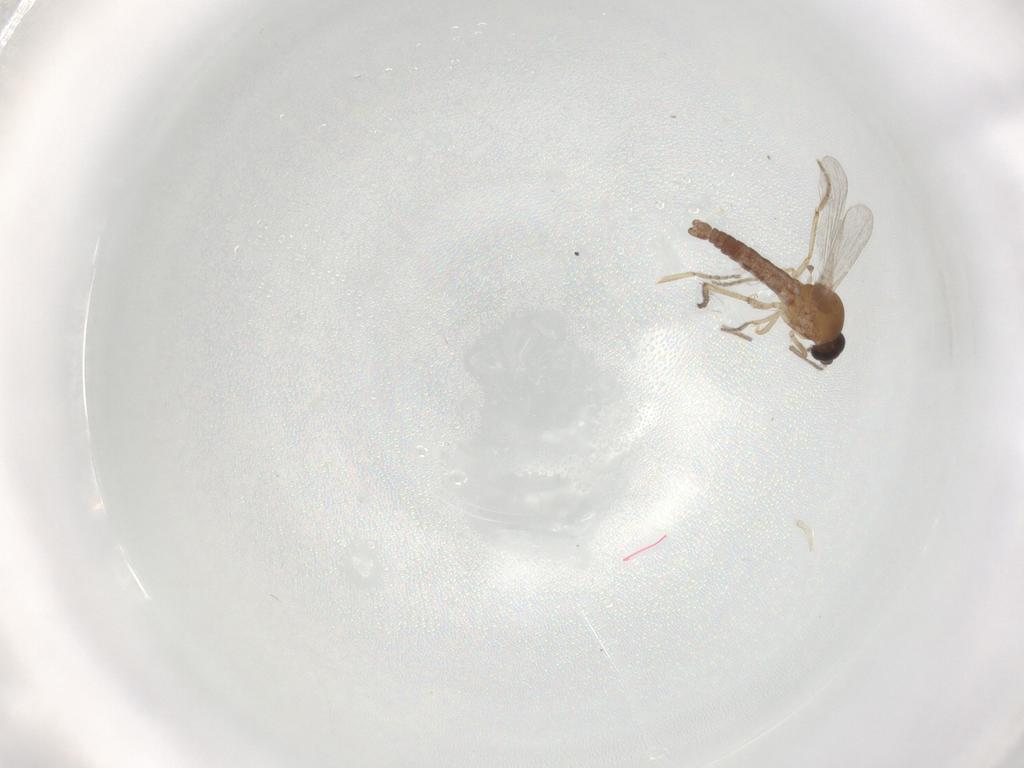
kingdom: Animalia
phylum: Arthropoda
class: Insecta
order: Diptera
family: Ceratopogonidae
